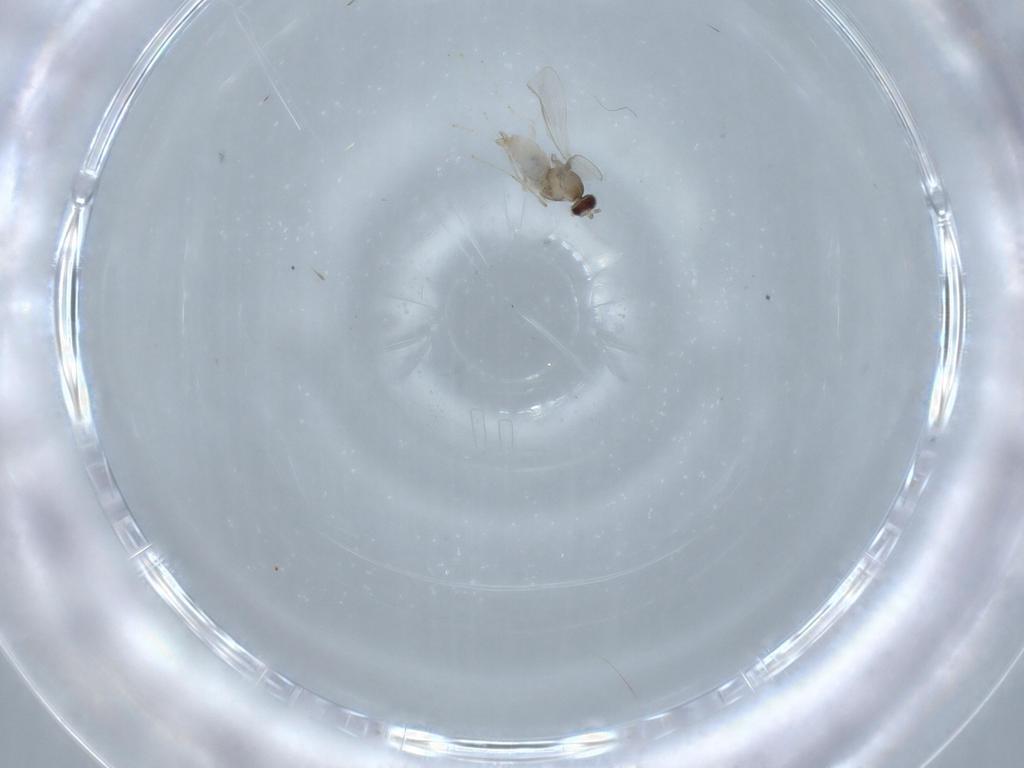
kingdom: Animalia
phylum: Arthropoda
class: Insecta
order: Diptera
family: Cecidomyiidae
